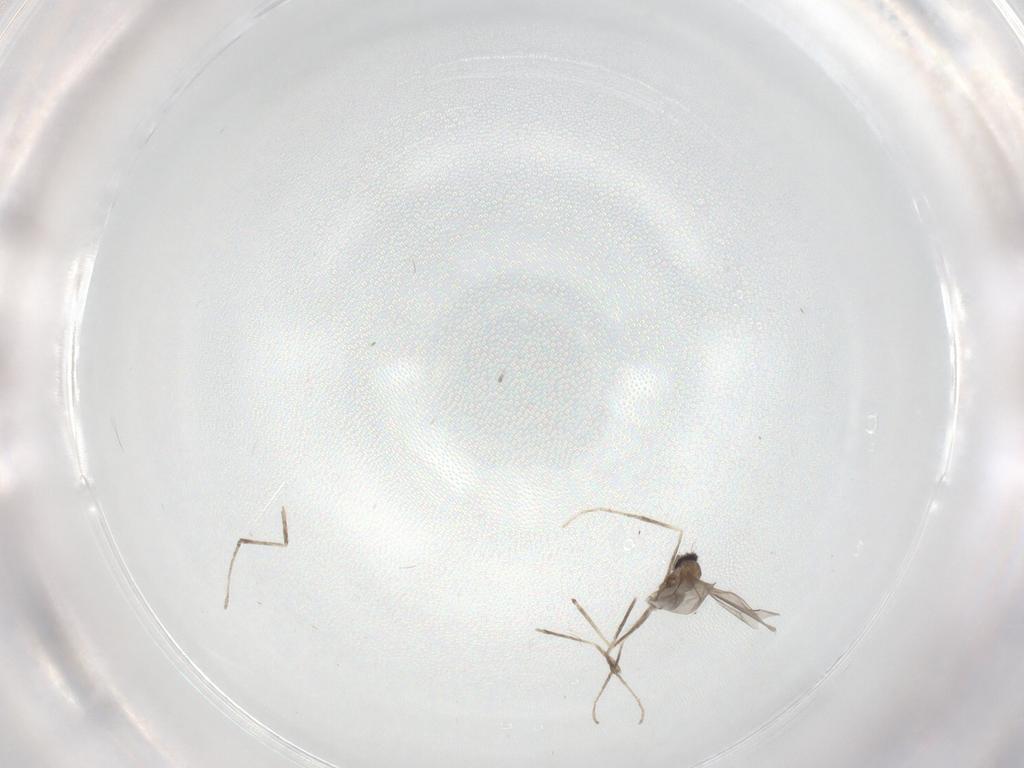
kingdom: Animalia
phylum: Arthropoda
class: Insecta
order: Diptera
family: Cecidomyiidae
